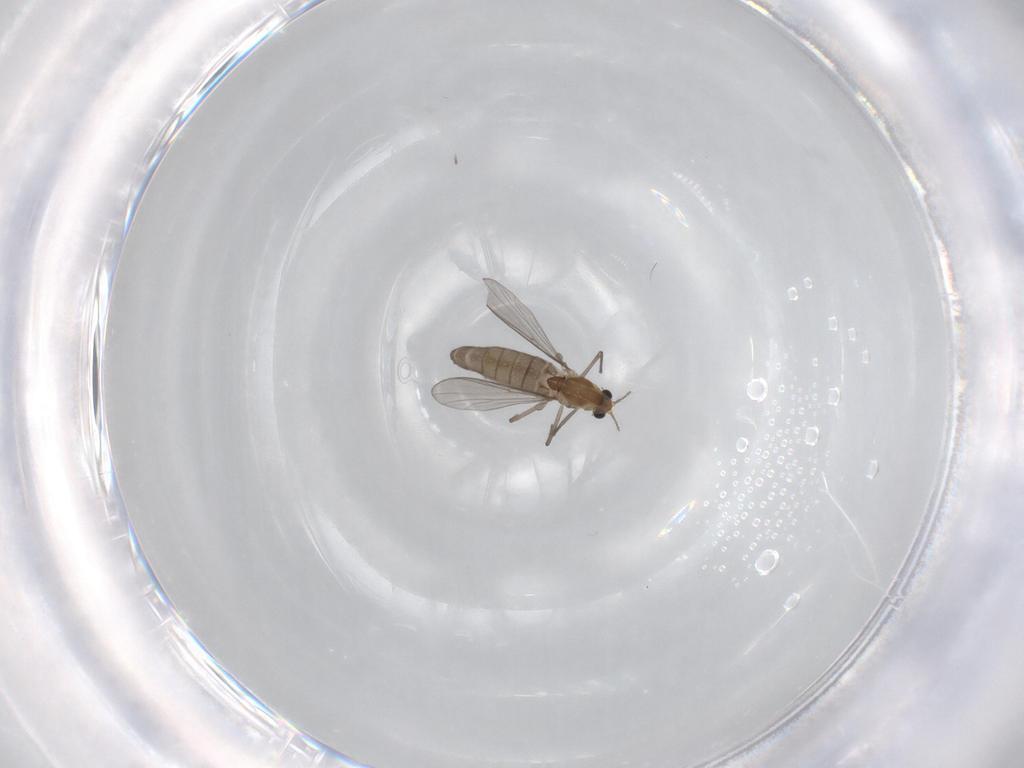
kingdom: Animalia
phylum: Arthropoda
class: Insecta
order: Diptera
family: Chironomidae
